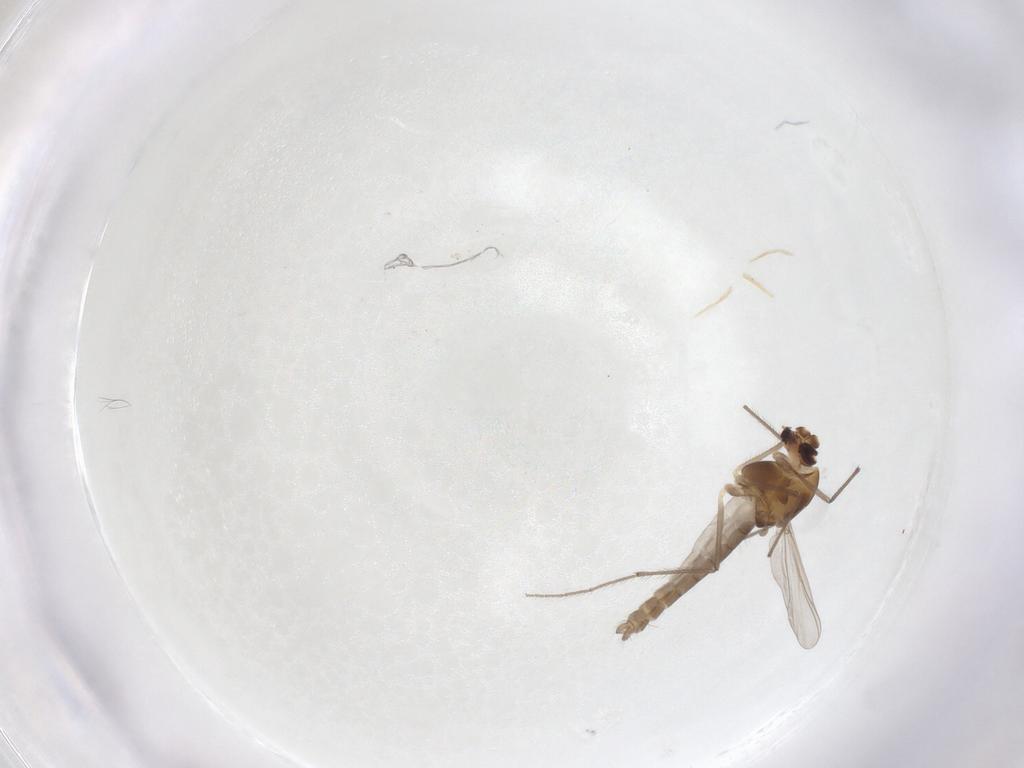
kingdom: Animalia
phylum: Arthropoda
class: Insecta
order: Diptera
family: Chironomidae
